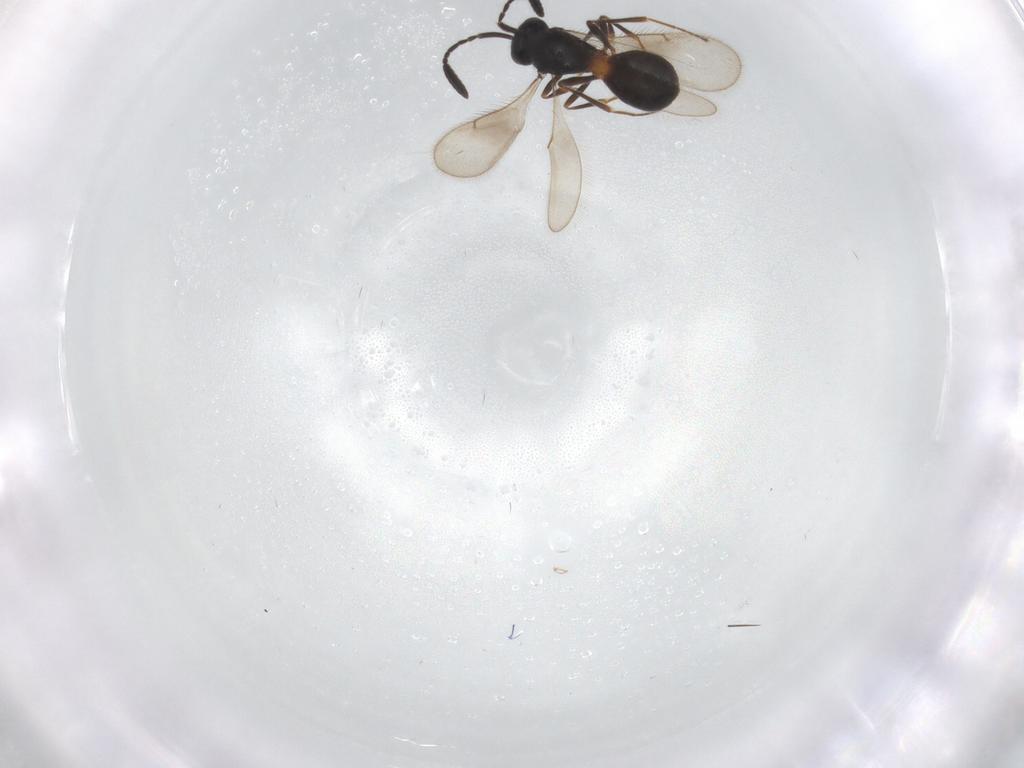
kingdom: Animalia
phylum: Arthropoda
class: Insecta
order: Hymenoptera
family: Scelionidae
